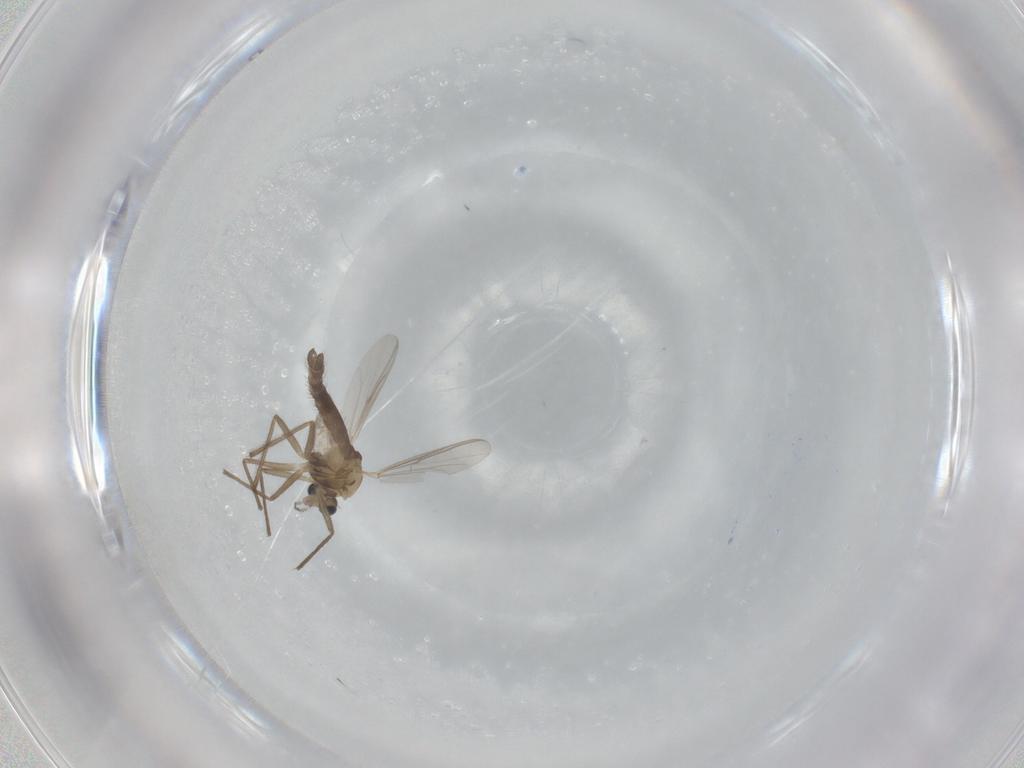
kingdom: Animalia
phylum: Arthropoda
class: Insecta
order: Diptera
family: Chironomidae
